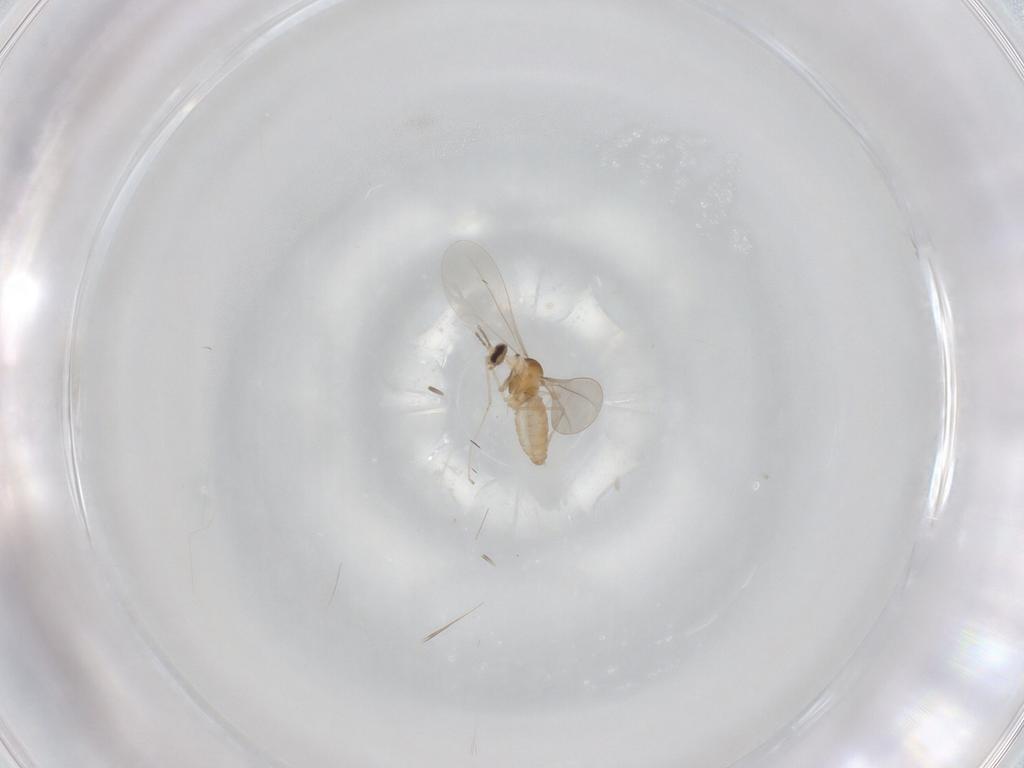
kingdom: Animalia
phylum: Arthropoda
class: Insecta
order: Diptera
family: Cecidomyiidae
